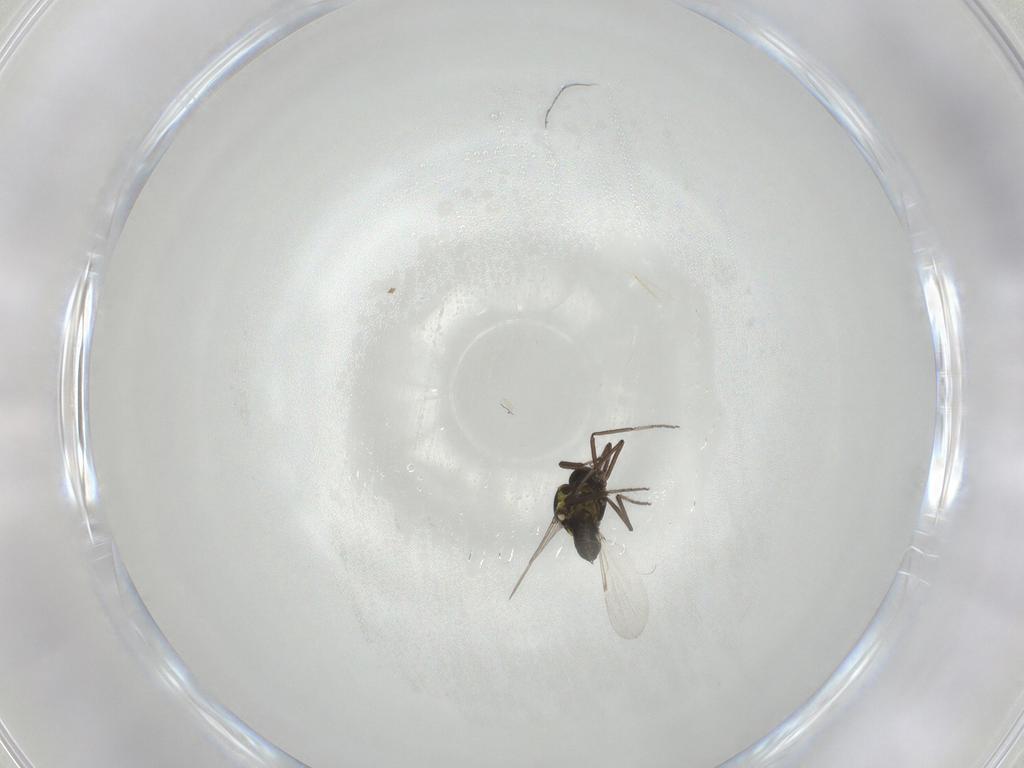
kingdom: Animalia
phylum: Arthropoda
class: Insecta
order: Diptera
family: Ceratopogonidae
